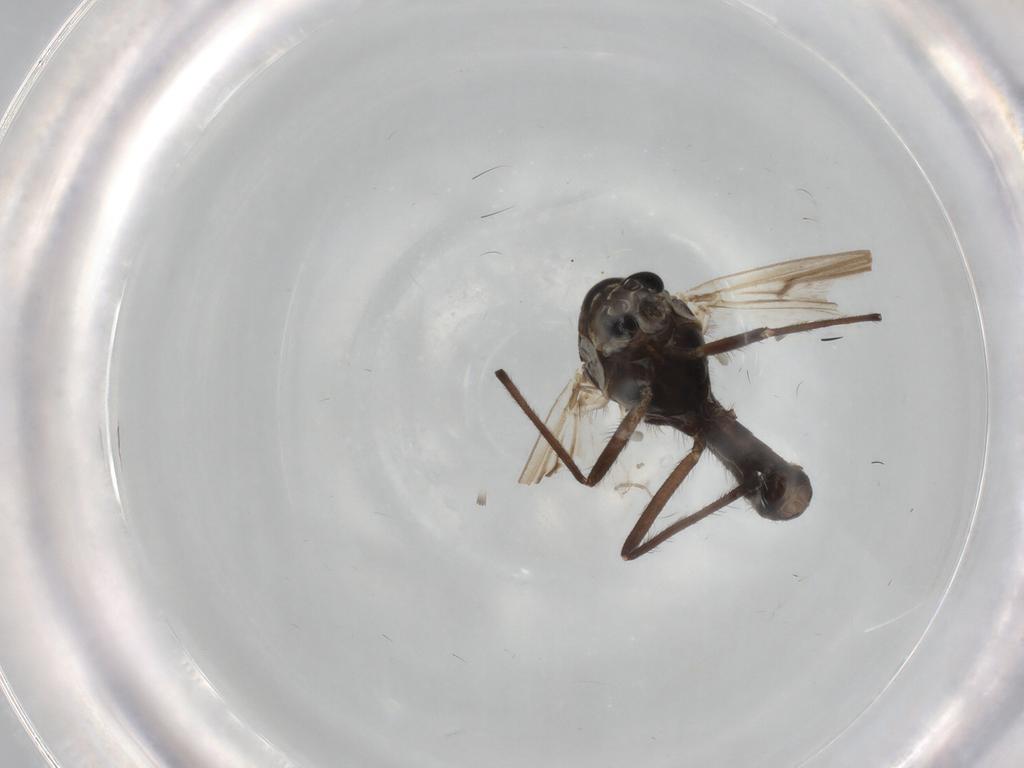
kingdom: Animalia
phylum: Arthropoda
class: Insecta
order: Diptera
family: Chironomidae
